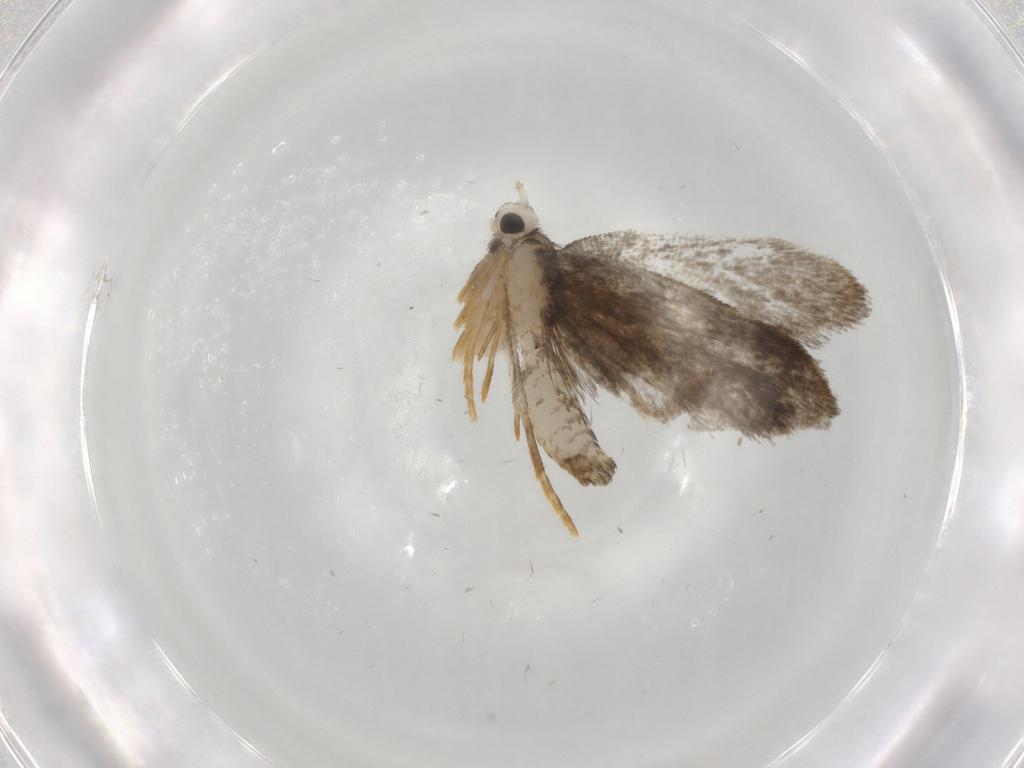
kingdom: Animalia
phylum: Arthropoda
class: Insecta
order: Lepidoptera
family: Psychidae
